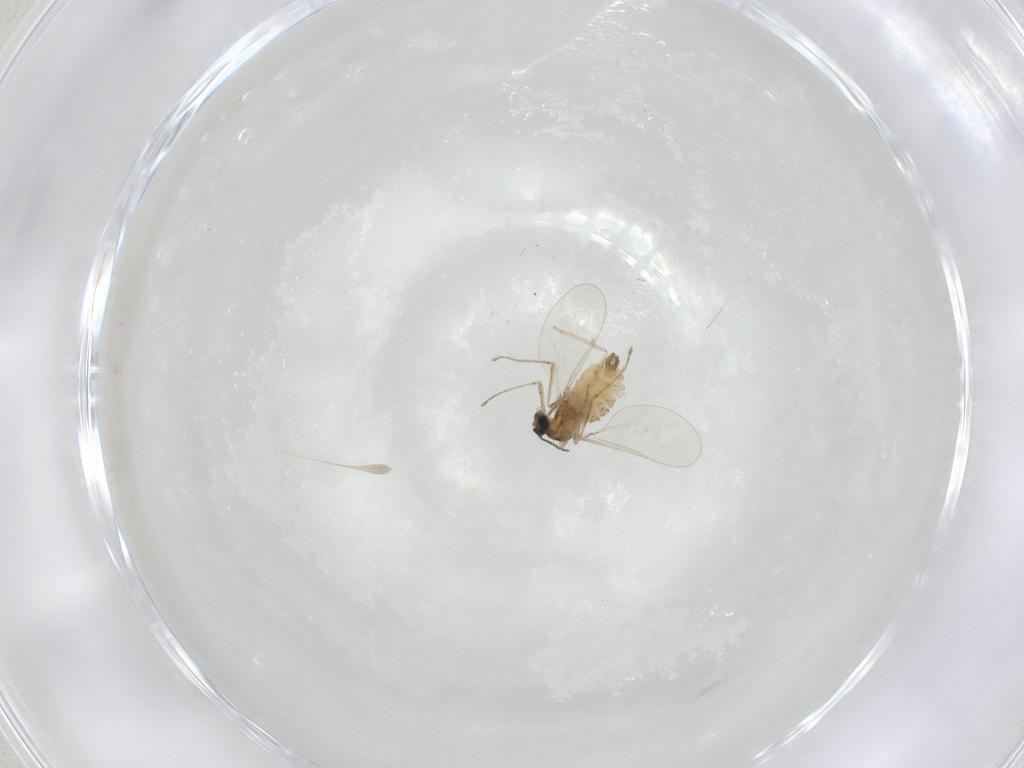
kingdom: Animalia
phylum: Arthropoda
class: Insecta
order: Diptera
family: Cecidomyiidae
